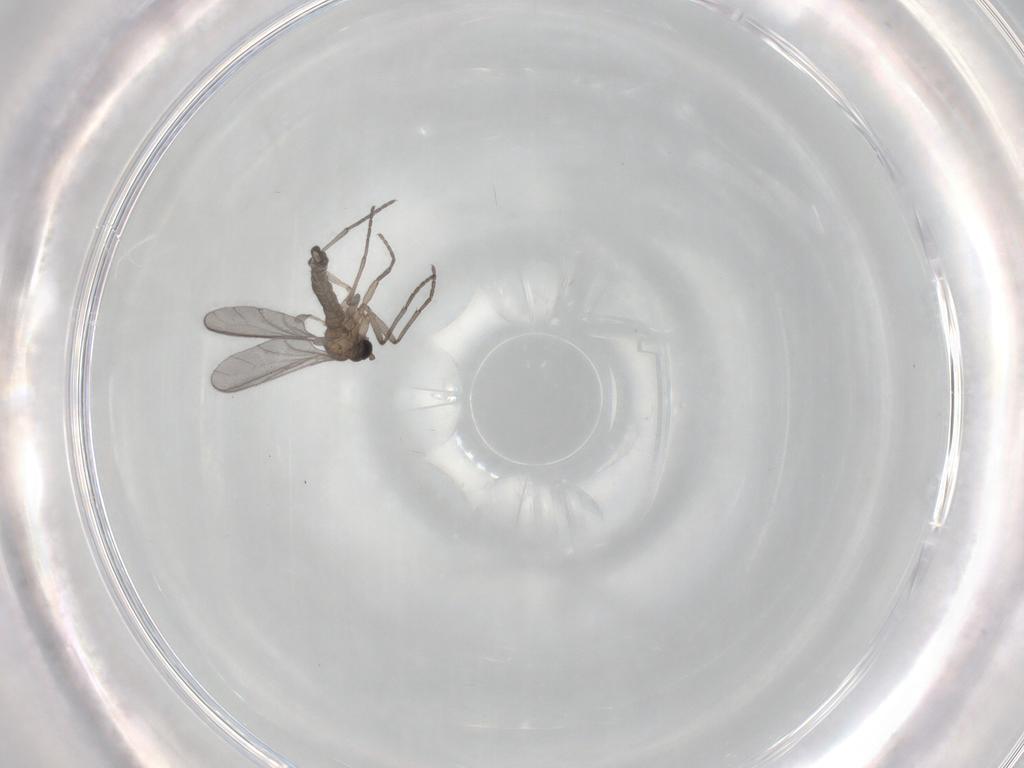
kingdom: Animalia
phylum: Arthropoda
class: Insecta
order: Diptera
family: Sciaridae
